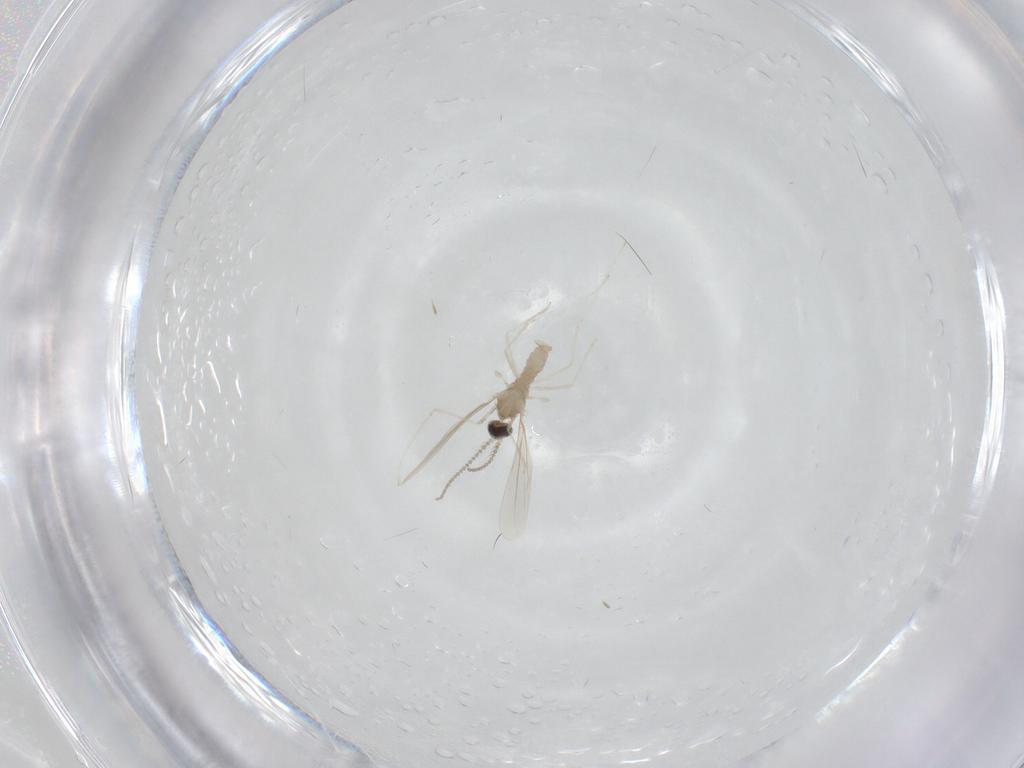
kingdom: Animalia
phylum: Arthropoda
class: Insecta
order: Diptera
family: Cecidomyiidae
